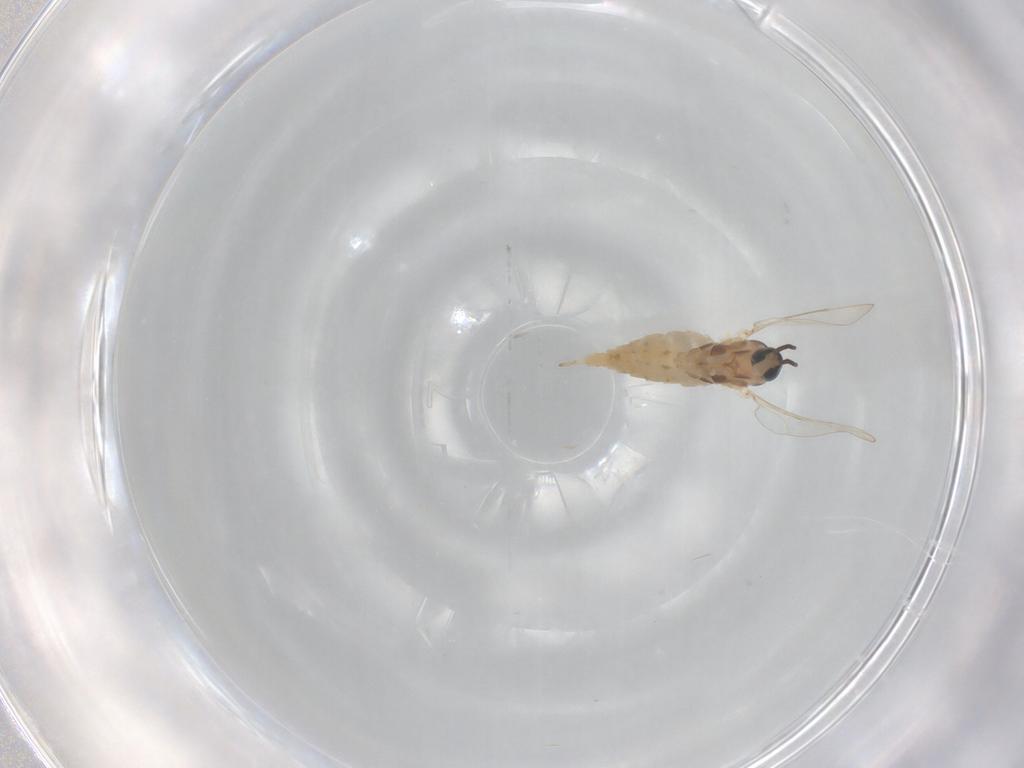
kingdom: Animalia
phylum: Arthropoda
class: Insecta
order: Diptera
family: Cecidomyiidae
